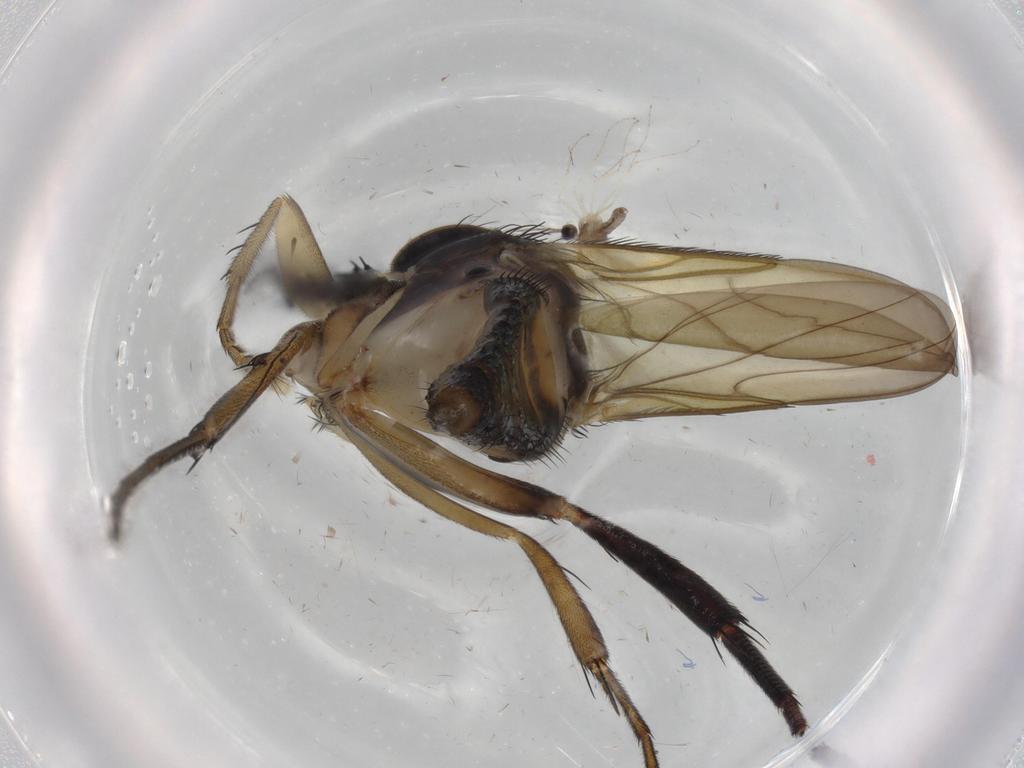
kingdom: Animalia
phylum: Arthropoda
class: Insecta
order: Diptera
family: Phoridae
